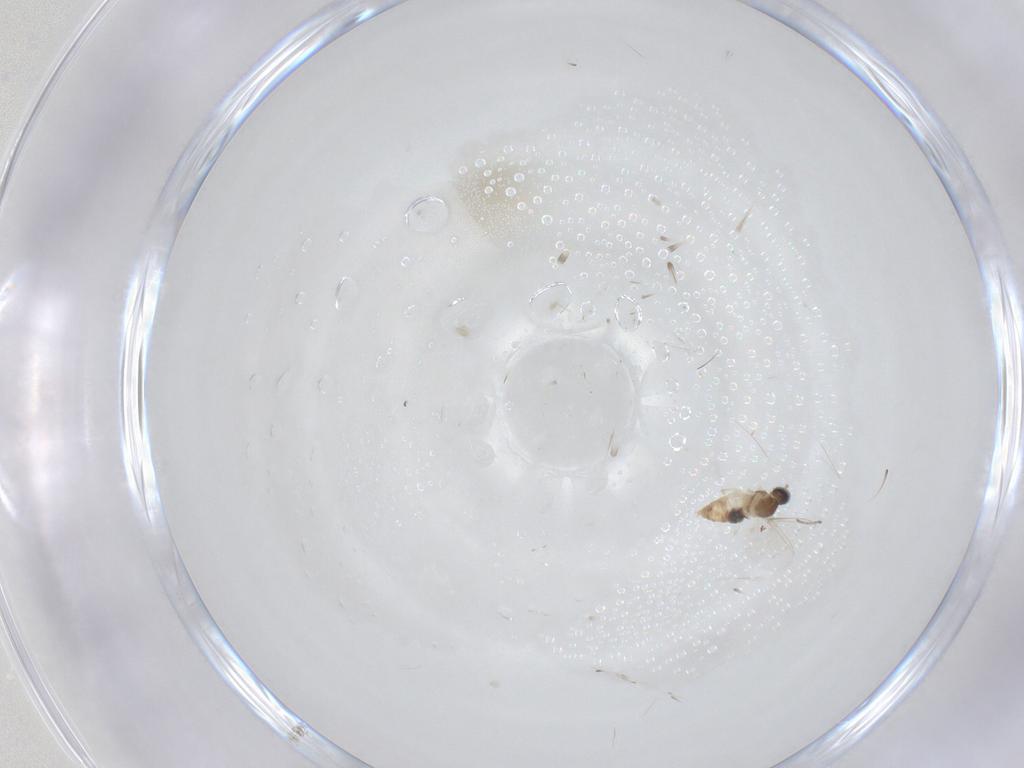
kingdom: Animalia
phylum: Arthropoda
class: Insecta
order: Diptera
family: Cecidomyiidae
